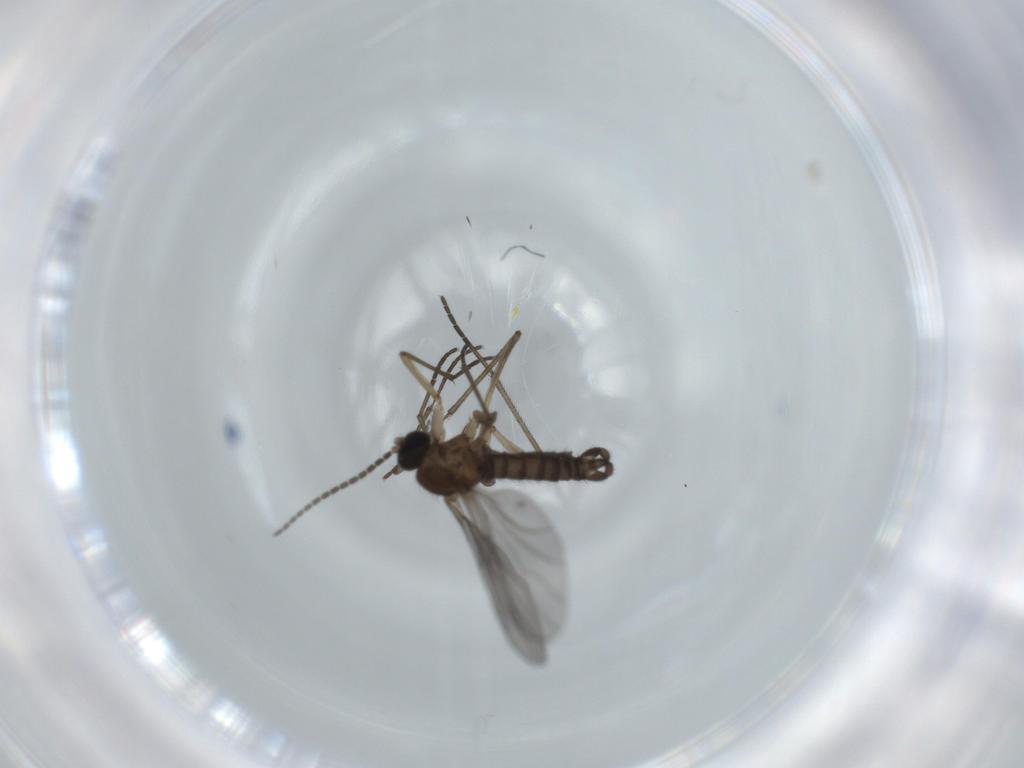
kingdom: Animalia
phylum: Arthropoda
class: Insecta
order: Diptera
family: Sciaridae
